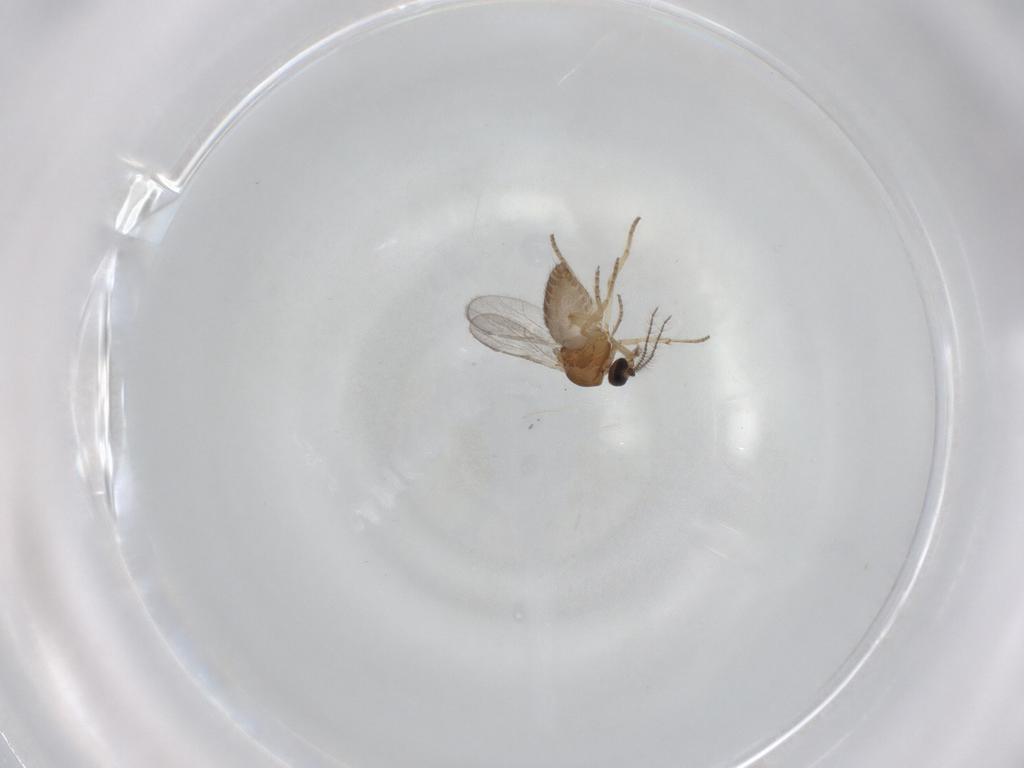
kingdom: Animalia
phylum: Arthropoda
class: Insecta
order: Diptera
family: Ceratopogonidae
